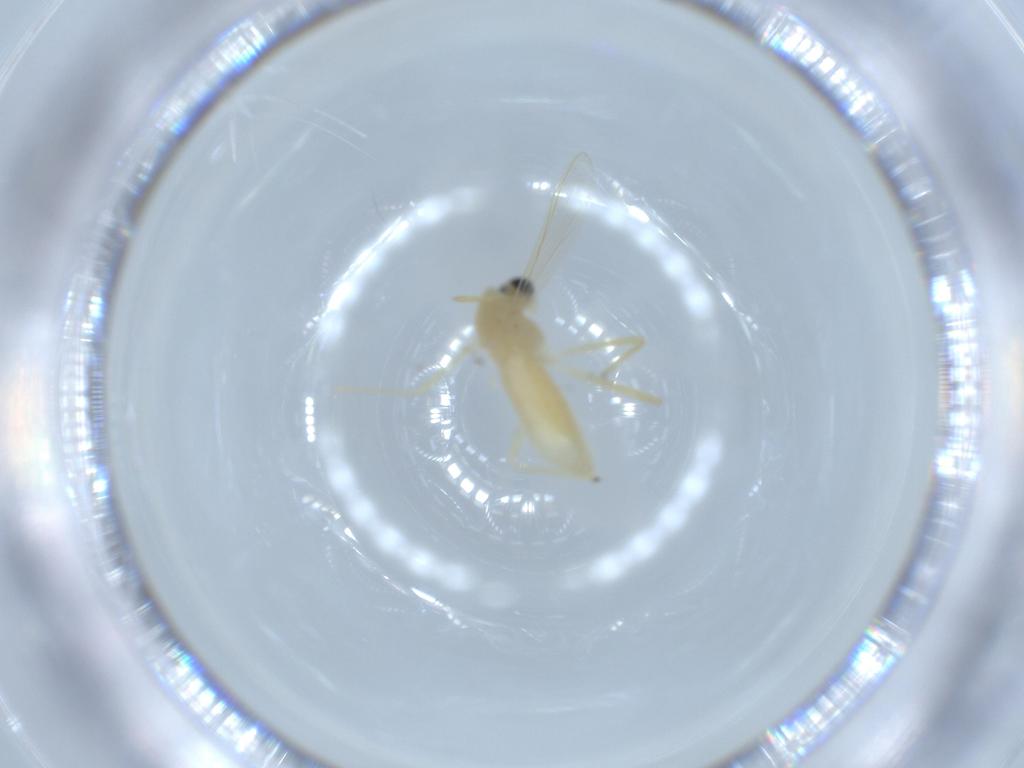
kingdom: Animalia
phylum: Arthropoda
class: Insecta
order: Diptera
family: Chironomidae
